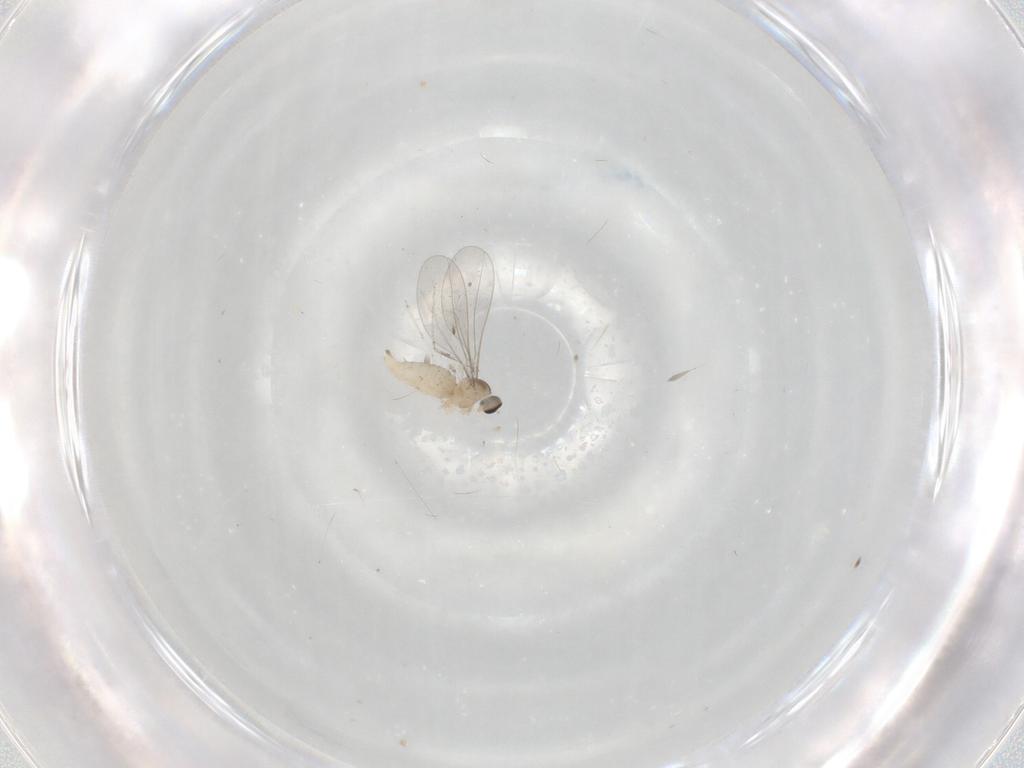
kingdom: Animalia
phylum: Arthropoda
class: Insecta
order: Diptera
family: Cecidomyiidae
